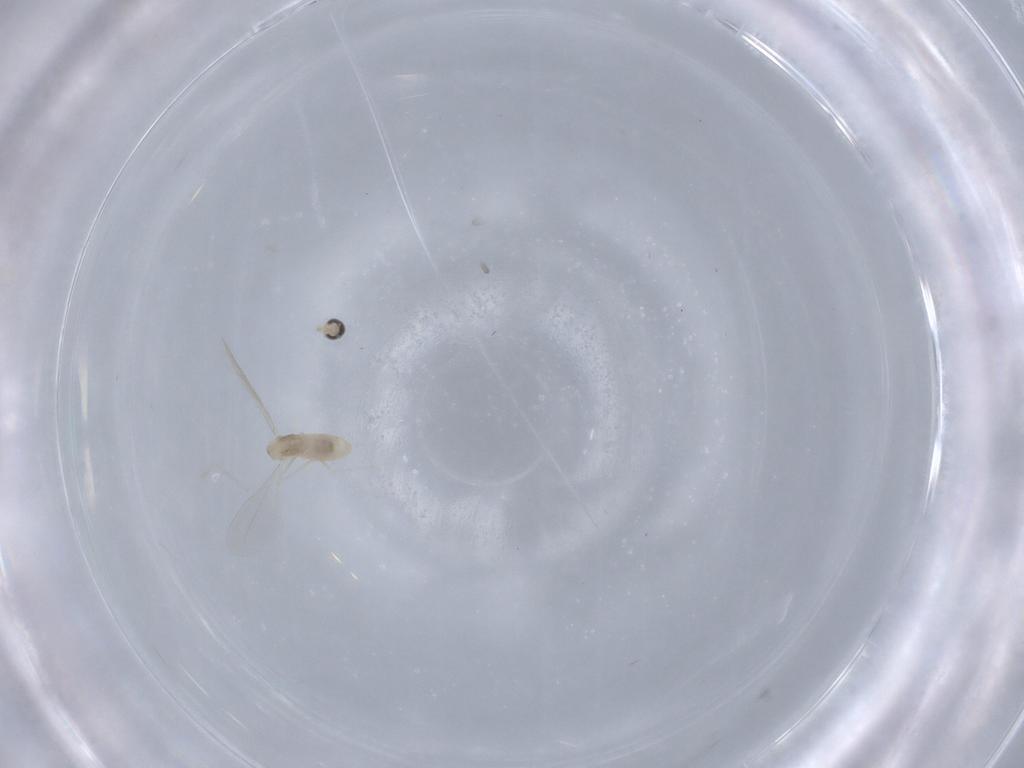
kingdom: Animalia
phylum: Arthropoda
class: Insecta
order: Diptera
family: Cecidomyiidae
